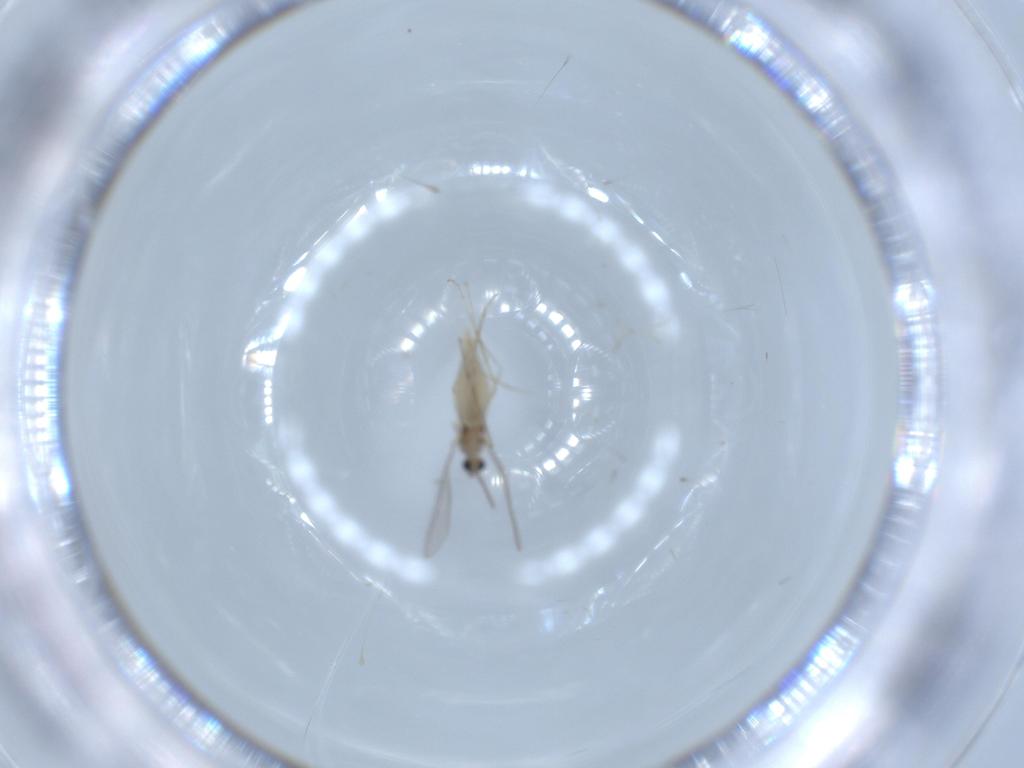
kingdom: Animalia
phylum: Arthropoda
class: Insecta
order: Diptera
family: Cecidomyiidae
